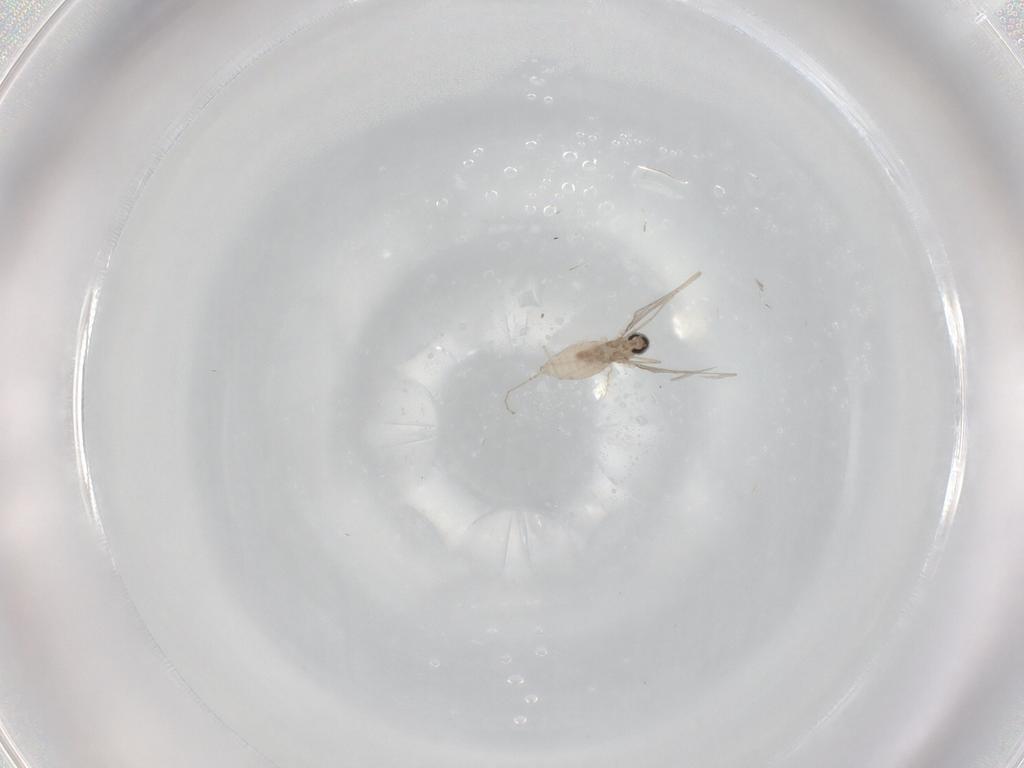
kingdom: Animalia
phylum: Arthropoda
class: Insecta
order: Diptera
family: Cecidomyiidae
